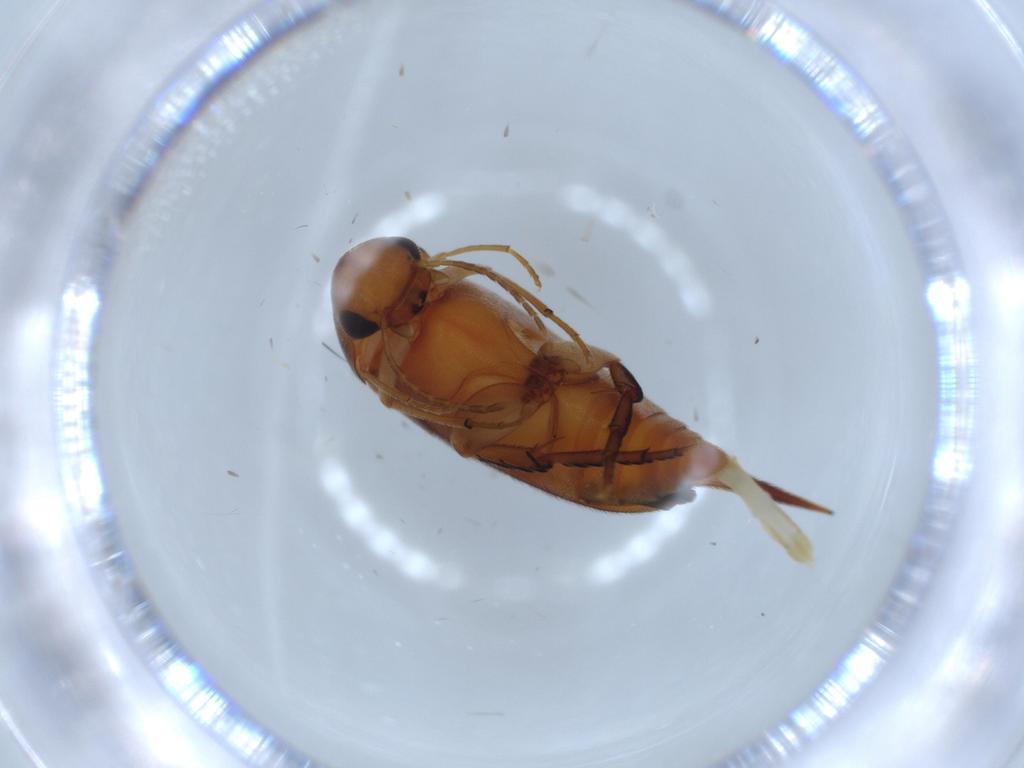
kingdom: Animalia
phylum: Arthropoda
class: Insecta
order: Coleoptera
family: Mordellidae
